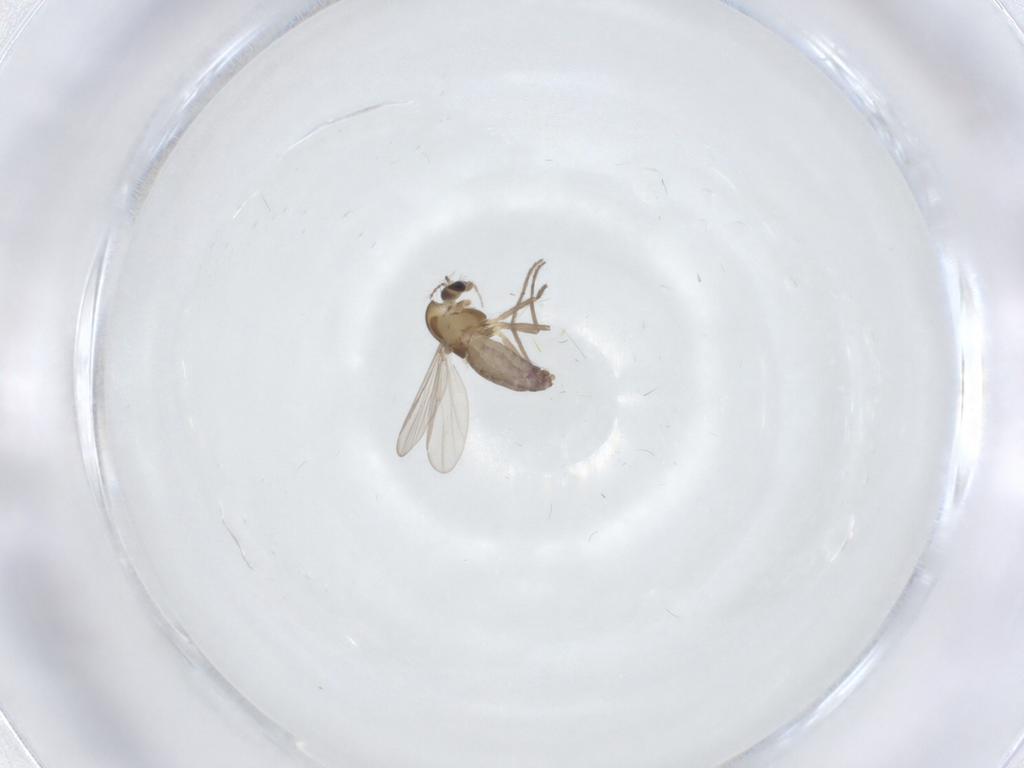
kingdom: Animalia
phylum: Arthropoda
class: Insecta
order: Diptera
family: Chironomidae
